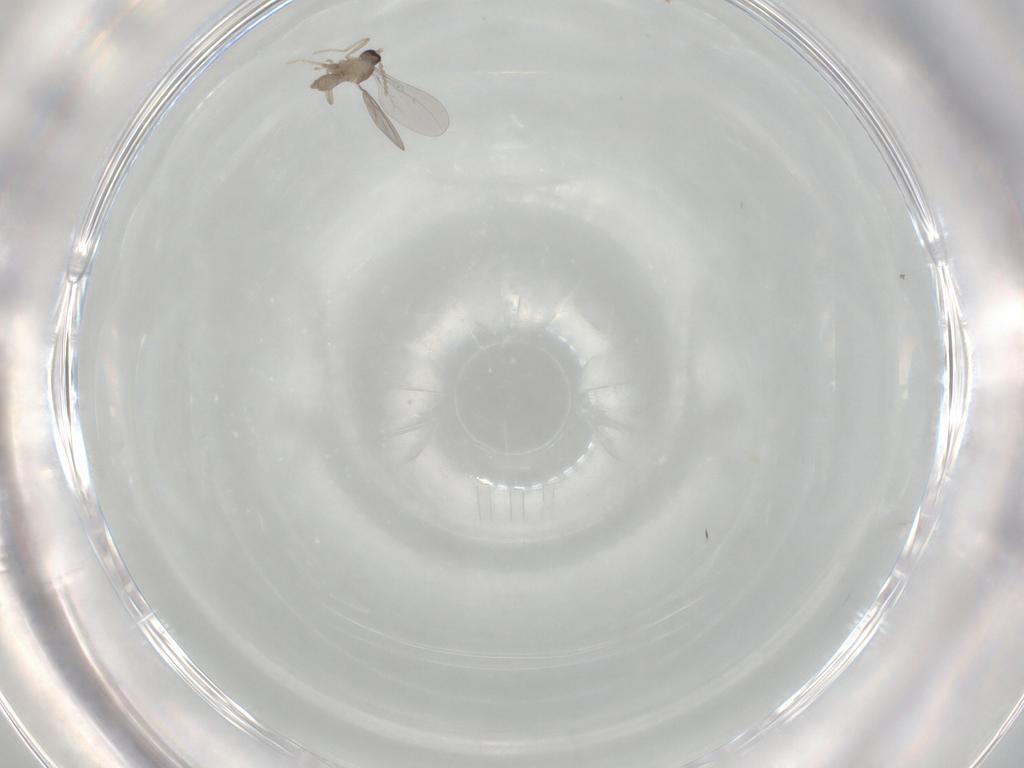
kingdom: Animalia
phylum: Arthropoda
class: Insecta
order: Diptera
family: Cecidomyiidae
